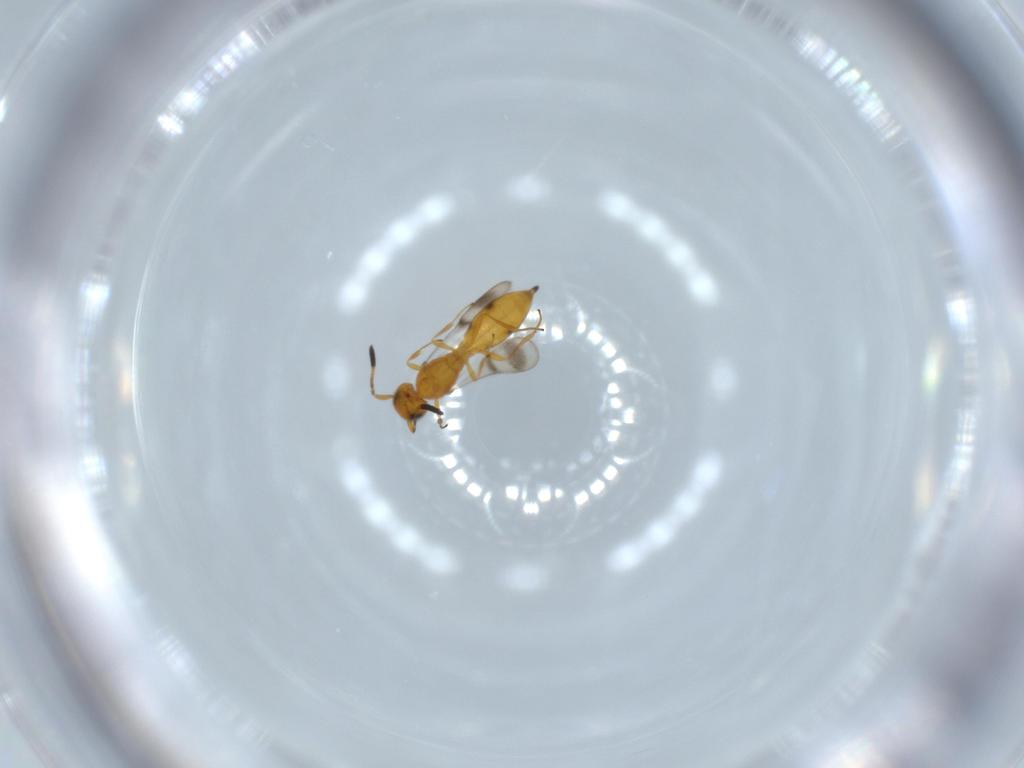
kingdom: Animalia
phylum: Arthropoda
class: Insecta
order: Hymenoptera
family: Scelionidae
